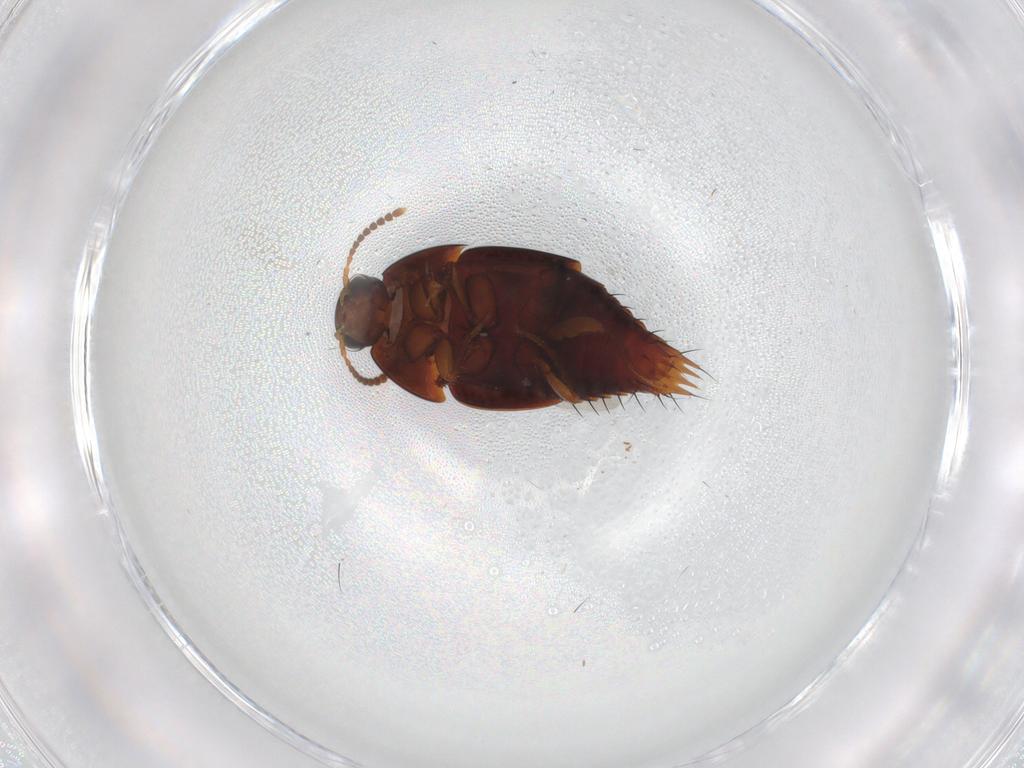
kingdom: Animalia
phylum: Arthropoda
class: Insecta
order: Coleoptera
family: Staphylinidae
